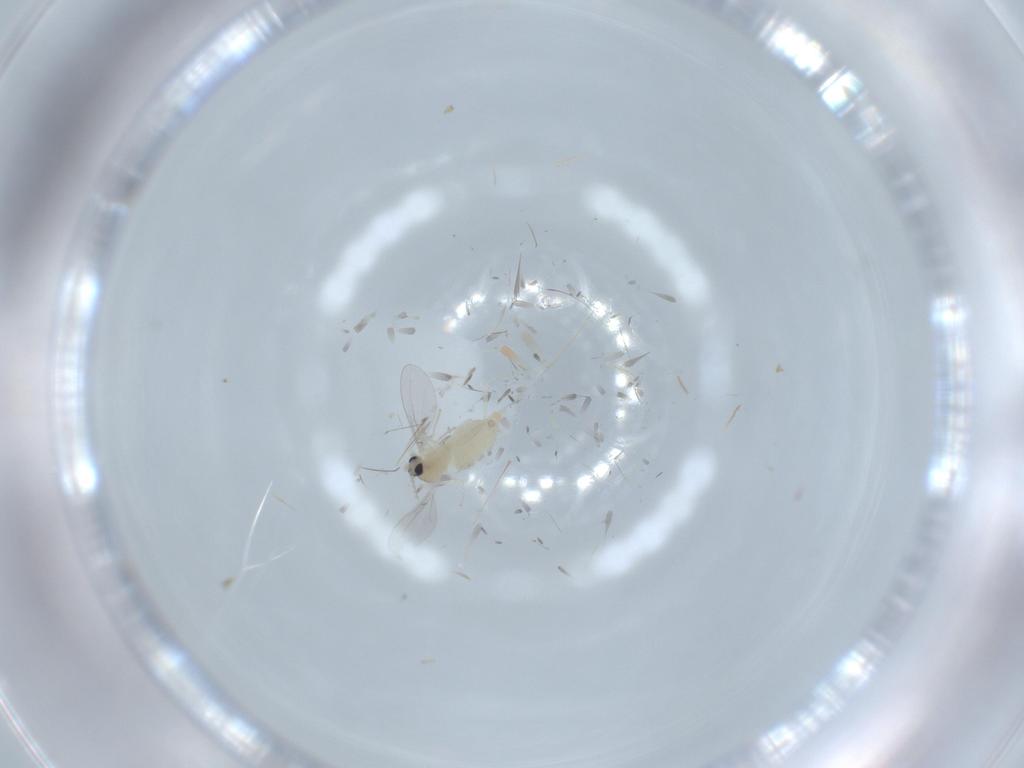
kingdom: Animalia
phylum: Arthropoda
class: Insecta
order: Diptera
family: Cecidomyiidae
